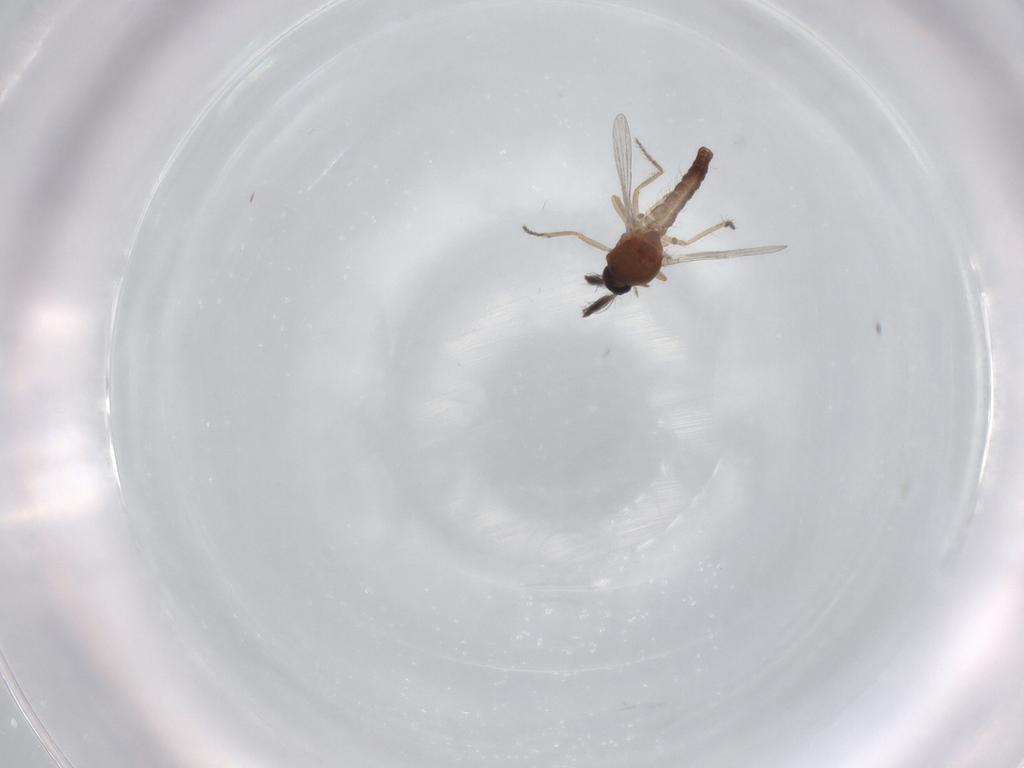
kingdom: Animalia
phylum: Arthropoda
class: Insecta
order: Diptera
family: Ceratopogonidae
